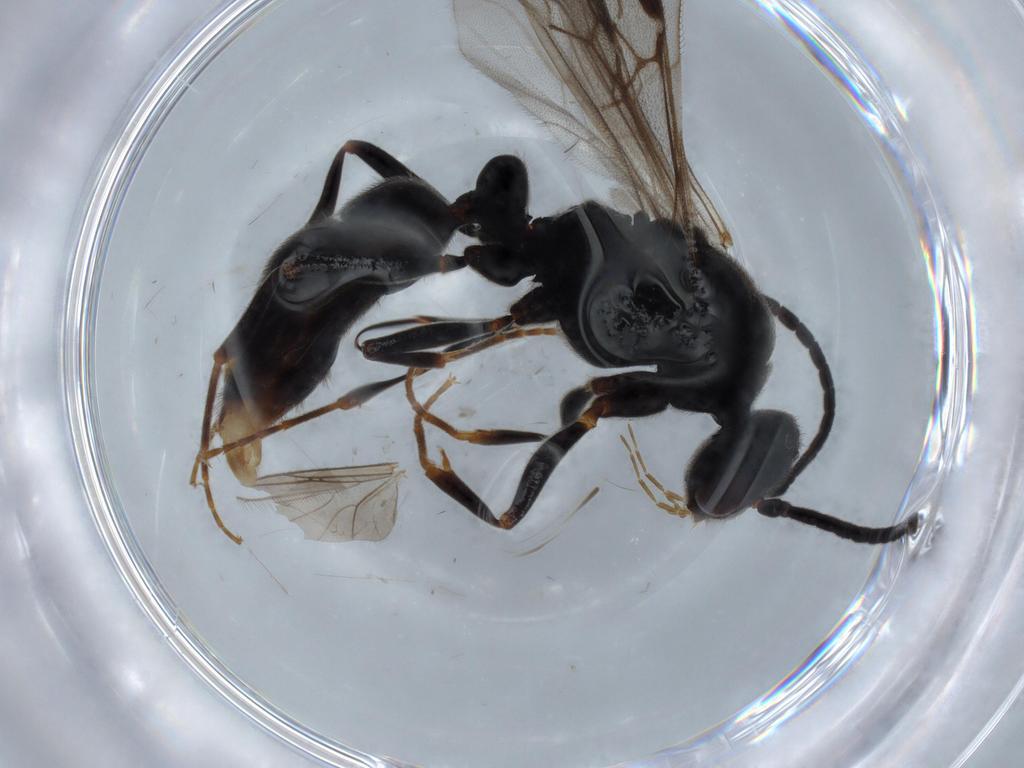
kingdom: Animalia
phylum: Arthropoda
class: Insecta
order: Hymenoptera
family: Formicidae
